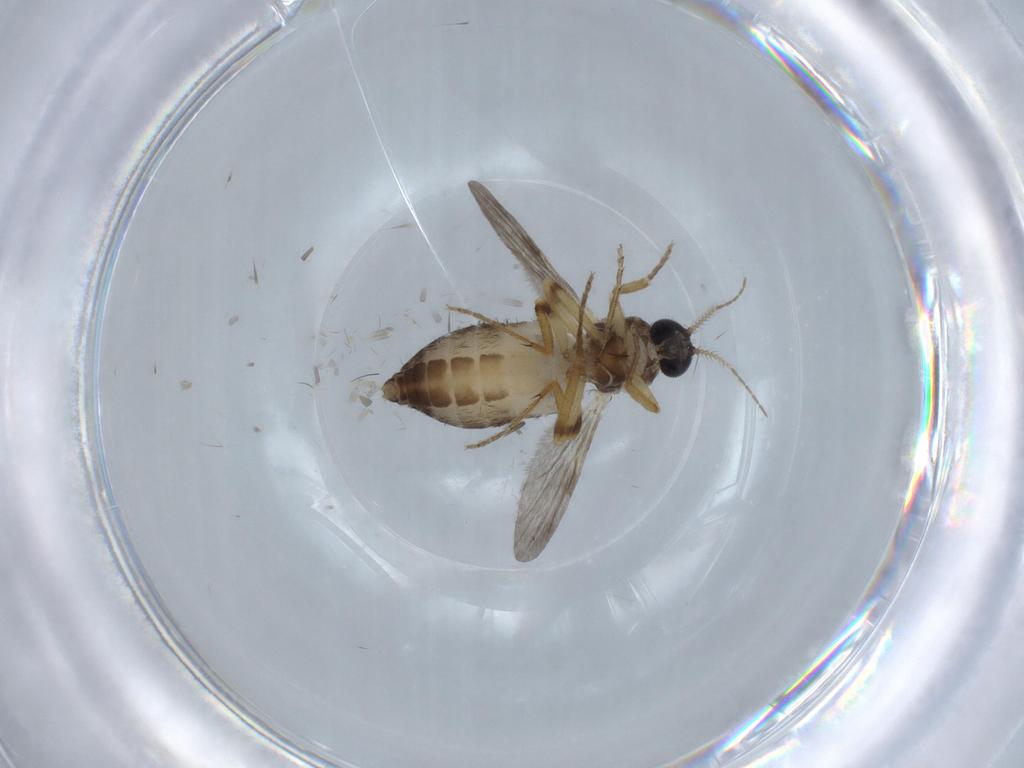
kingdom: Animalia
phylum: Arthropoda
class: Insecta
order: Diptera
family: Ceratopogonidae
